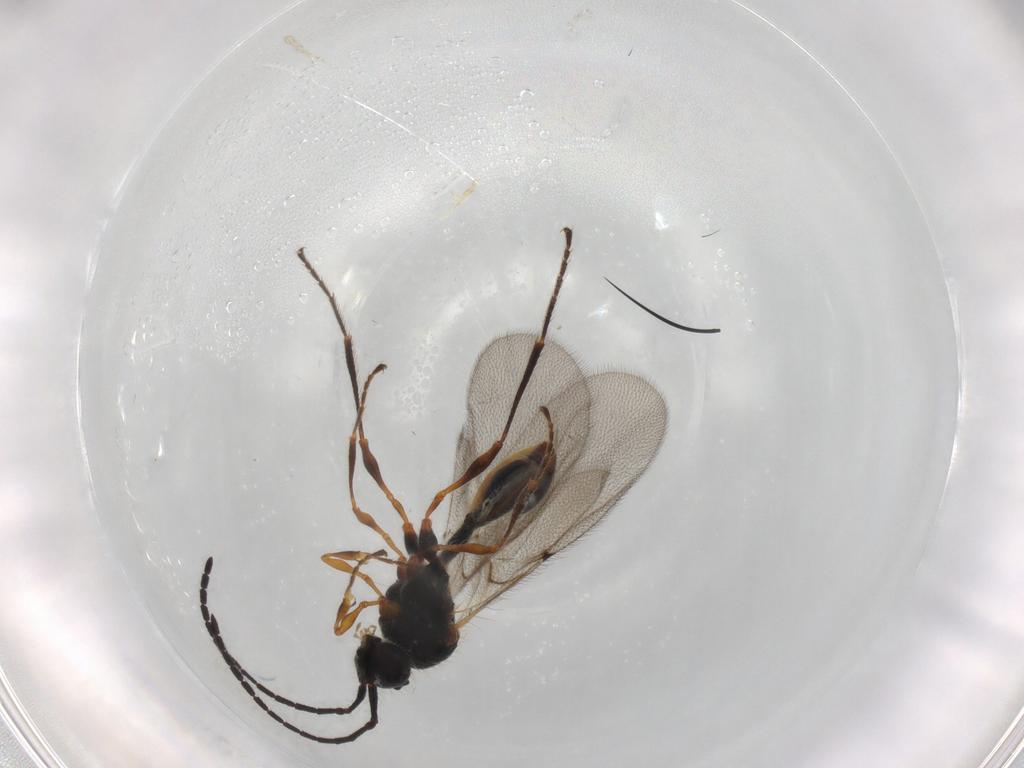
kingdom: Animalia
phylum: Arthropoda
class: Insecta
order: Hymenoptera
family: Diapriidae
